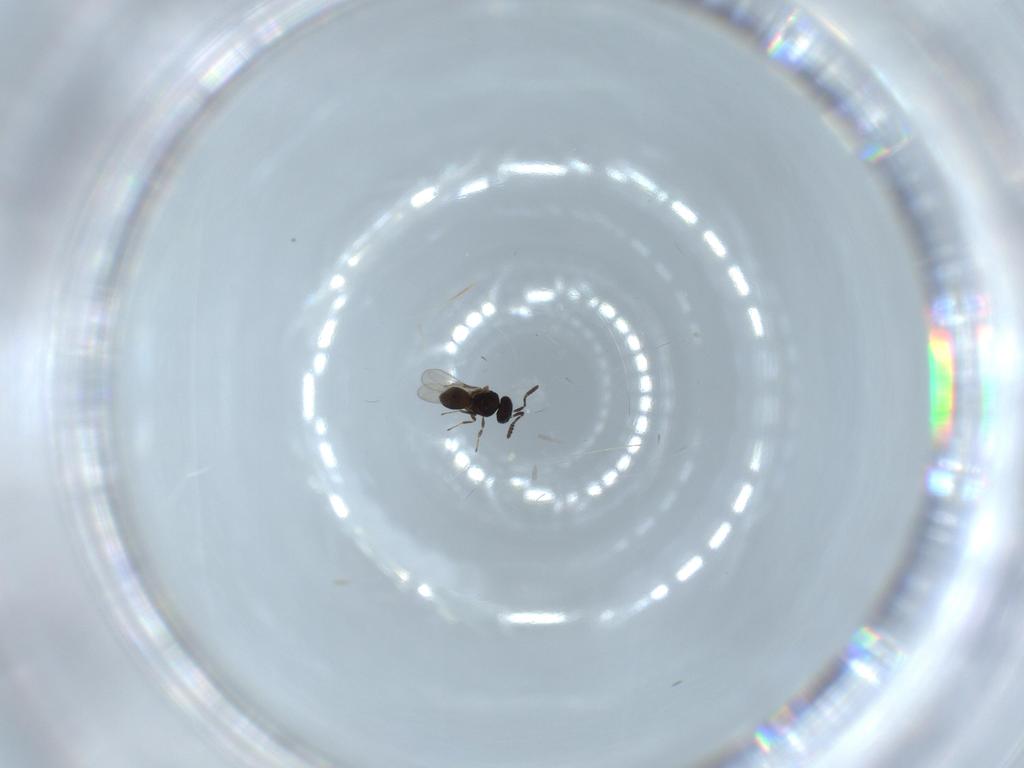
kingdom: Animalia
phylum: Arthropoda
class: Insecta
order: Hymenoptera
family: Scelionidae
